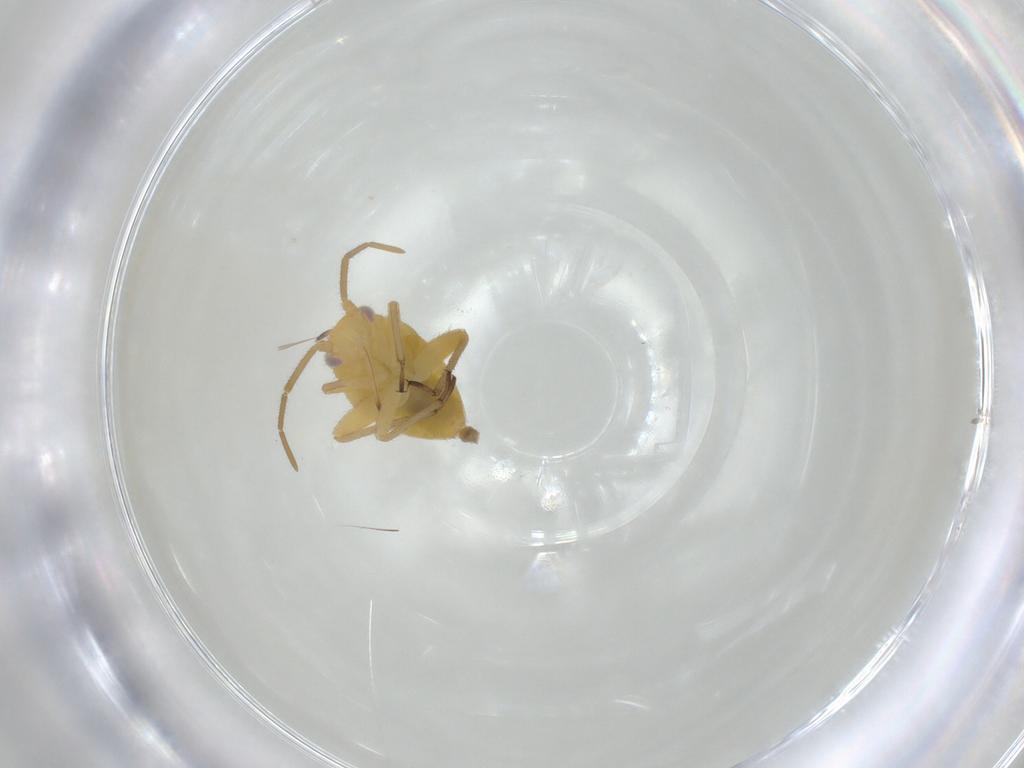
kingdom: Animalia
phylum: Arthropoda
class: Insecta
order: Hemiptera
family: Miridae
